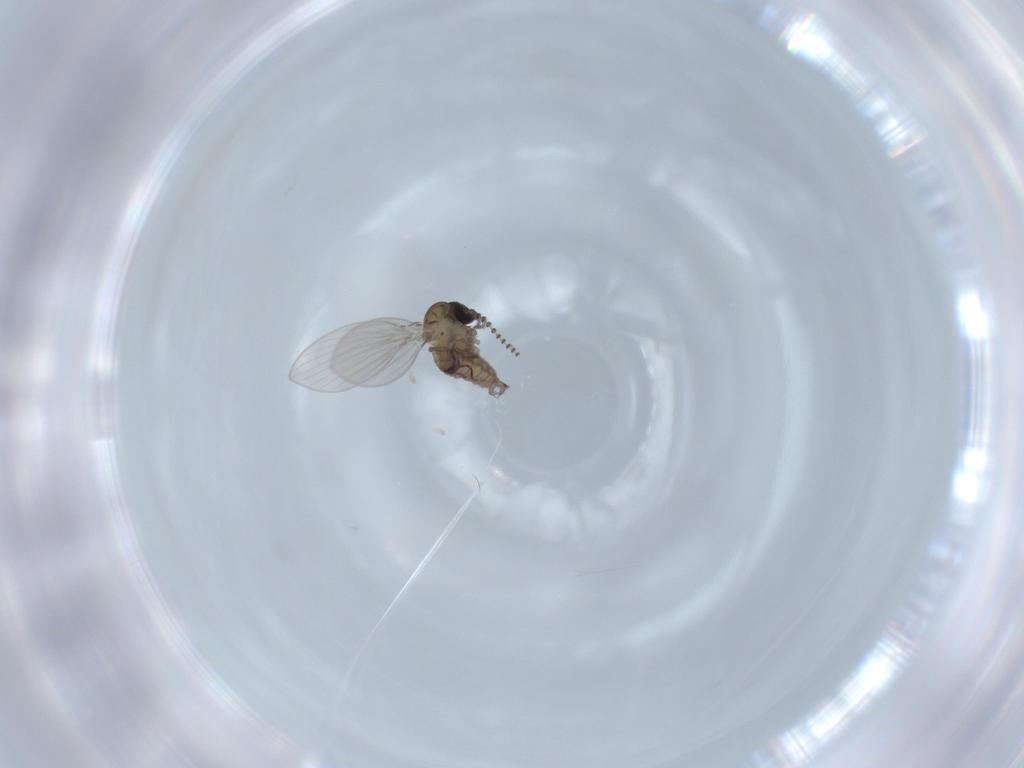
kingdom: Animalia
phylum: Arthropoda
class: Insecta
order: Diptera
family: Psychodidae
